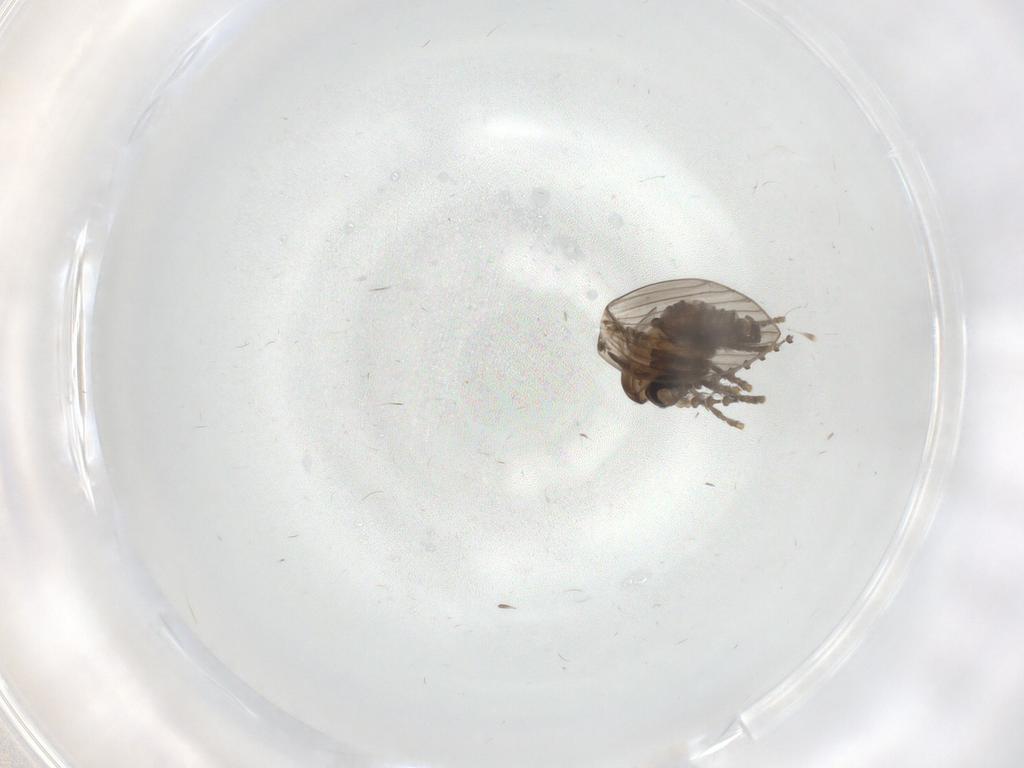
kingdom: Animalia
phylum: Arthropoda
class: Insecta
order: Diptera
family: Psychodidae
